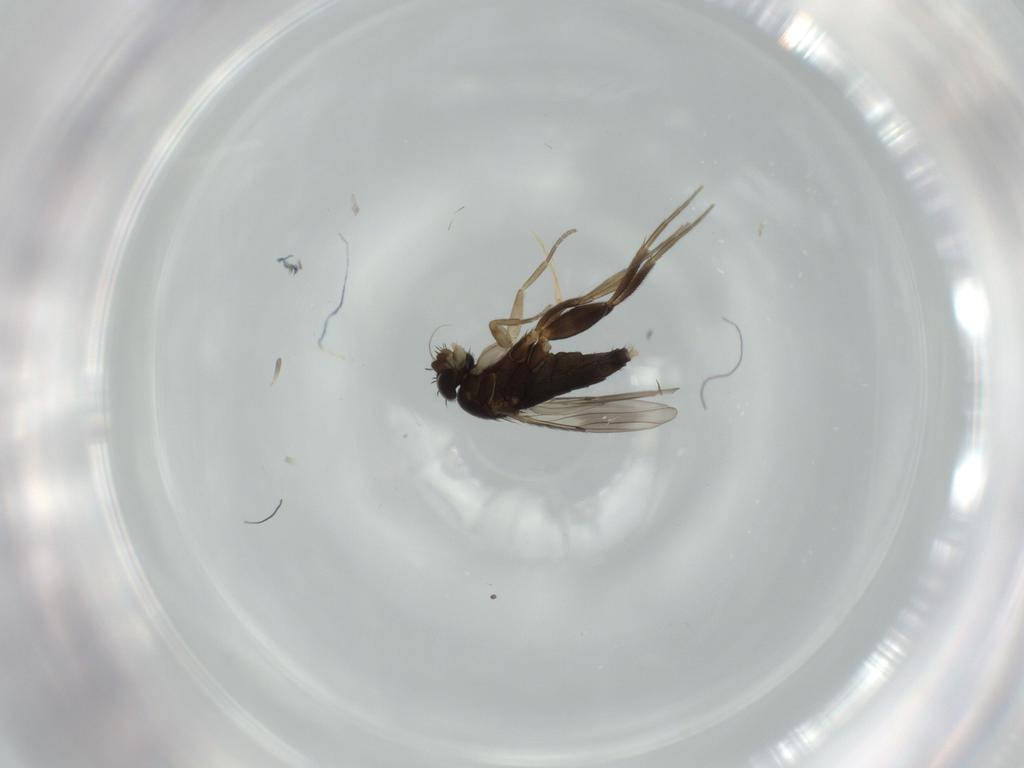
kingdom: Animalia
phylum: Arthropoda
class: Insecta
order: Diptera
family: Phoridae
